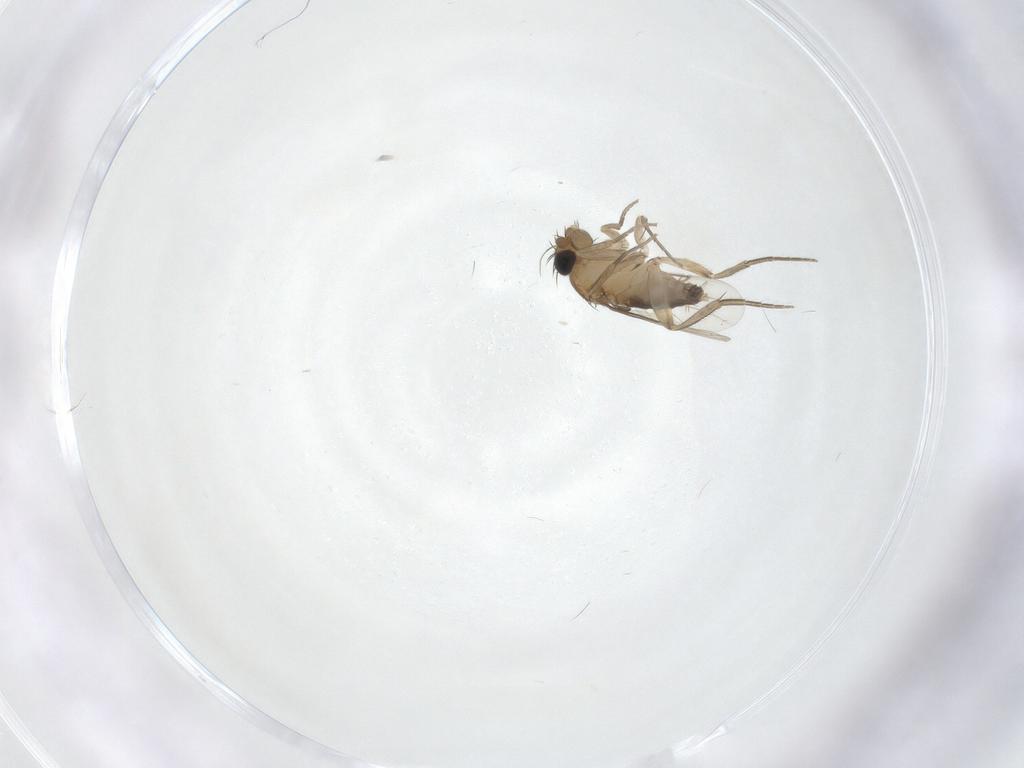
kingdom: Animalia
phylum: Arthropoda
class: Insecta
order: Diptera
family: Phoridae
